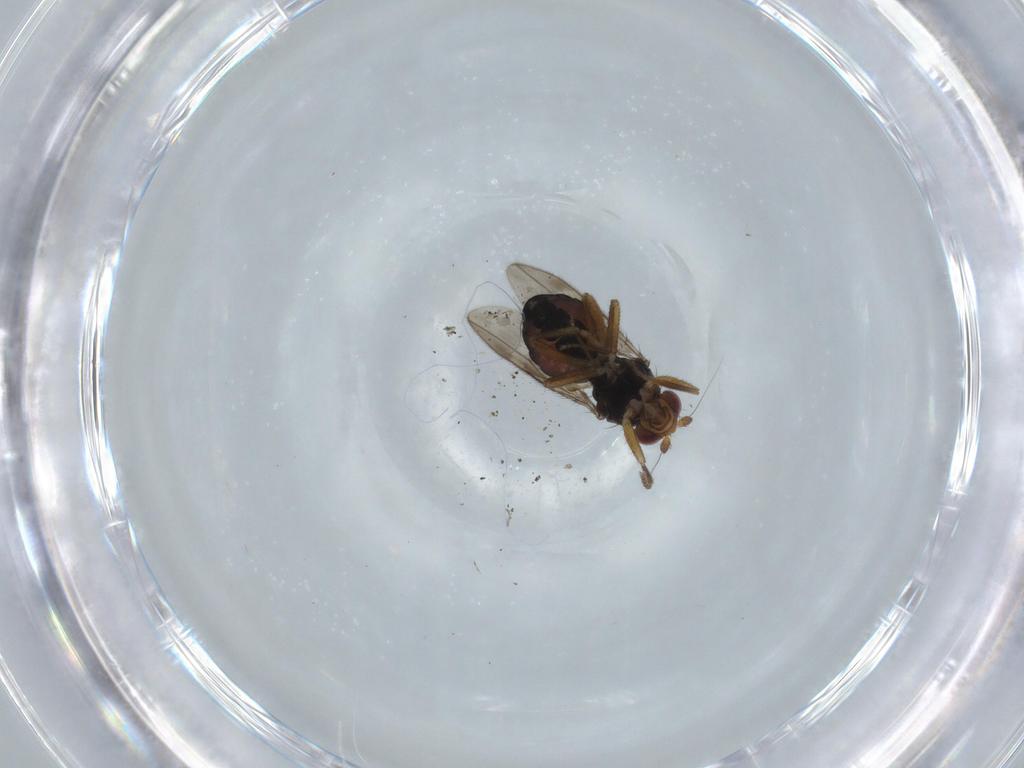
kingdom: Animalia
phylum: Arthropoda
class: Insecta
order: Diptera
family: Sphaeroceridae
